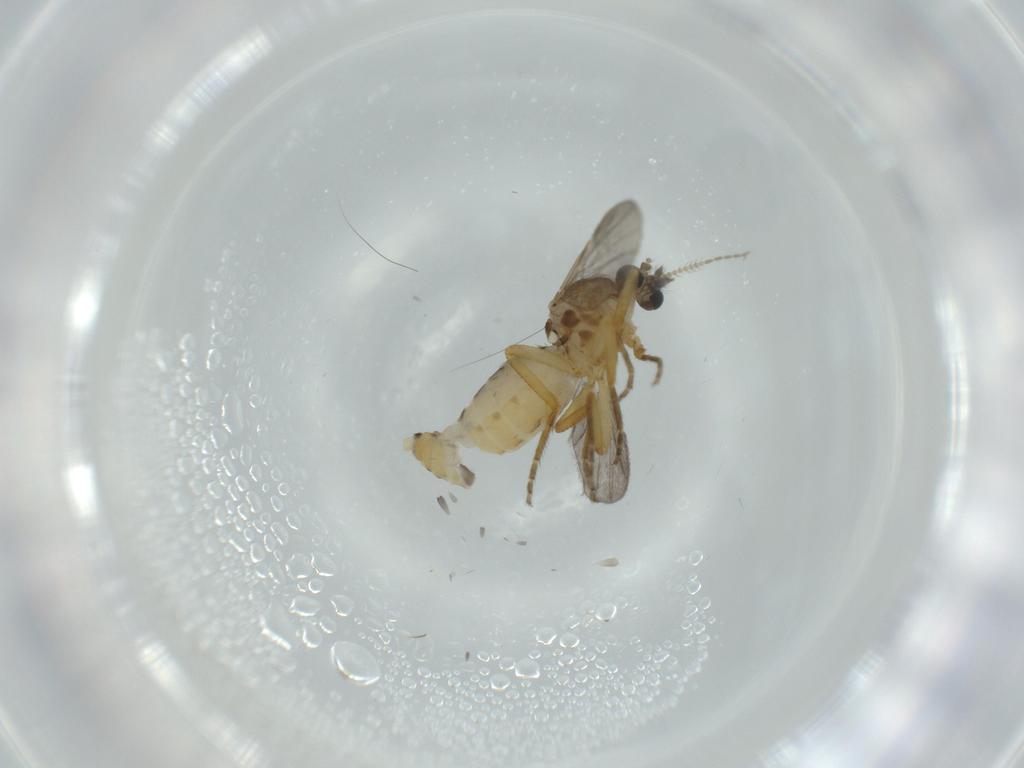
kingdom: Animalia
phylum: Arthropoda
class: Insecta
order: Diptera
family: Ceratopogonidae
